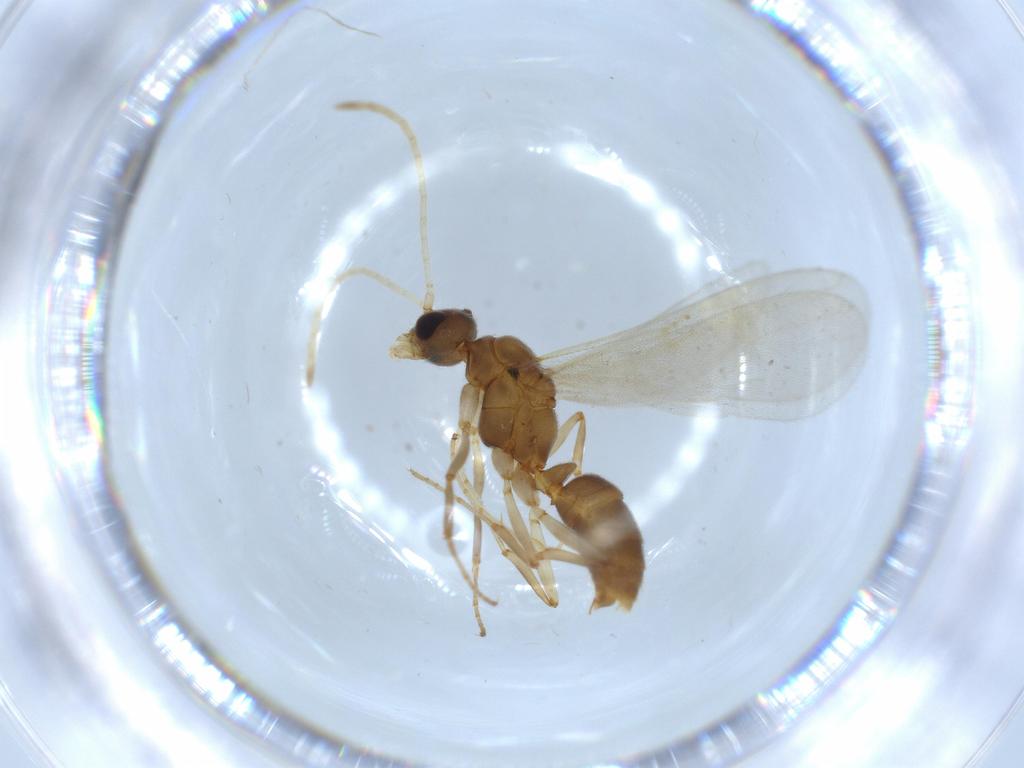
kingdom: Animalia
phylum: Arthropoda
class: Insecta
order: Hymenoptera
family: Formicidae
